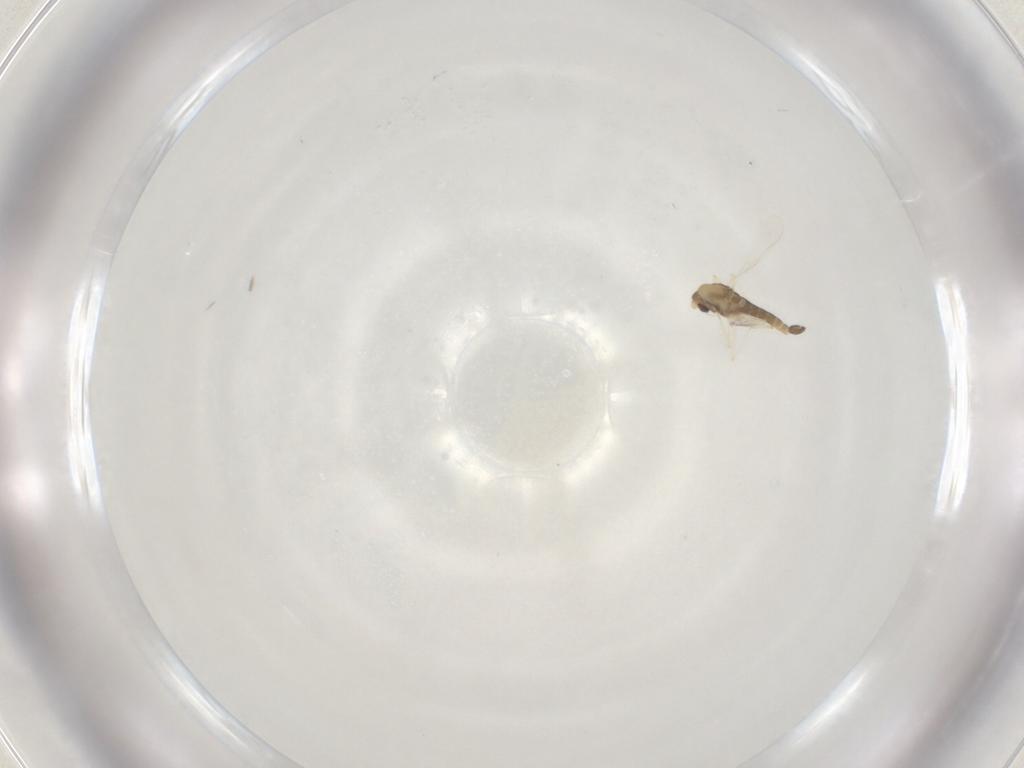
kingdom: Animalia
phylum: Arthropoda
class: Insecta
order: Diptera
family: Chironomidae
